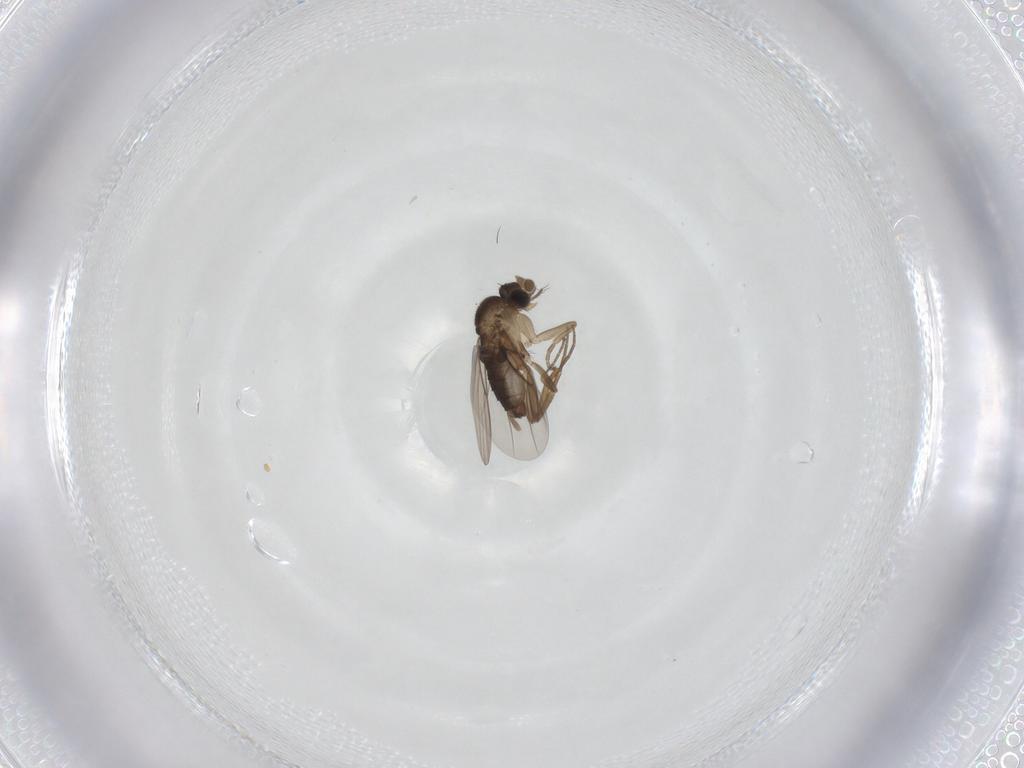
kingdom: Animalia
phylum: Arthropoda
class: Insecta
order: Diptera
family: Phoridae
